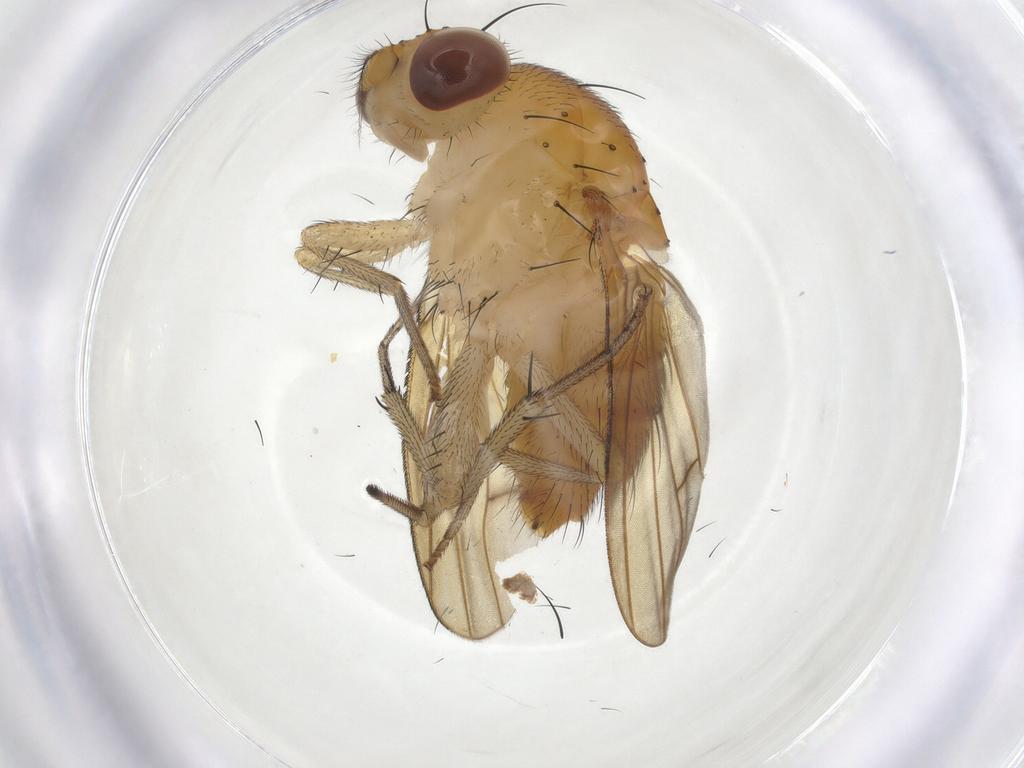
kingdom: Animalia
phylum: Arthropoda
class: Insecta
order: Diptera
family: Lauxaniidae
